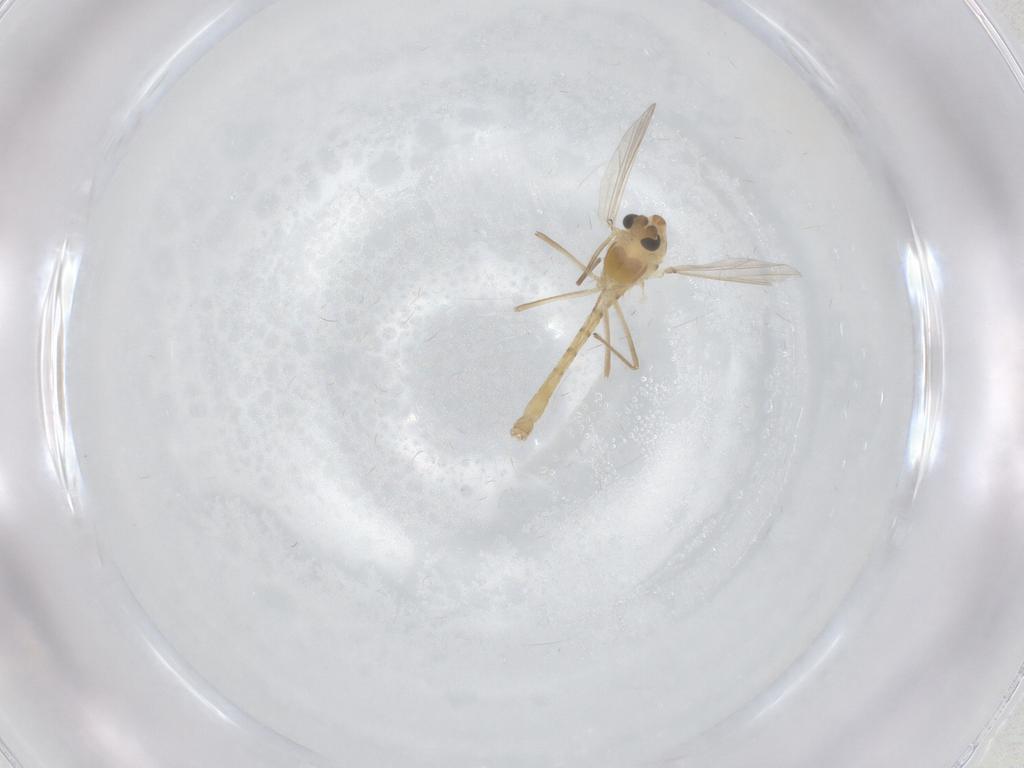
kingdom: Animalia
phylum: Arthropoda
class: Insecta
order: Diptera
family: Chironomidae
